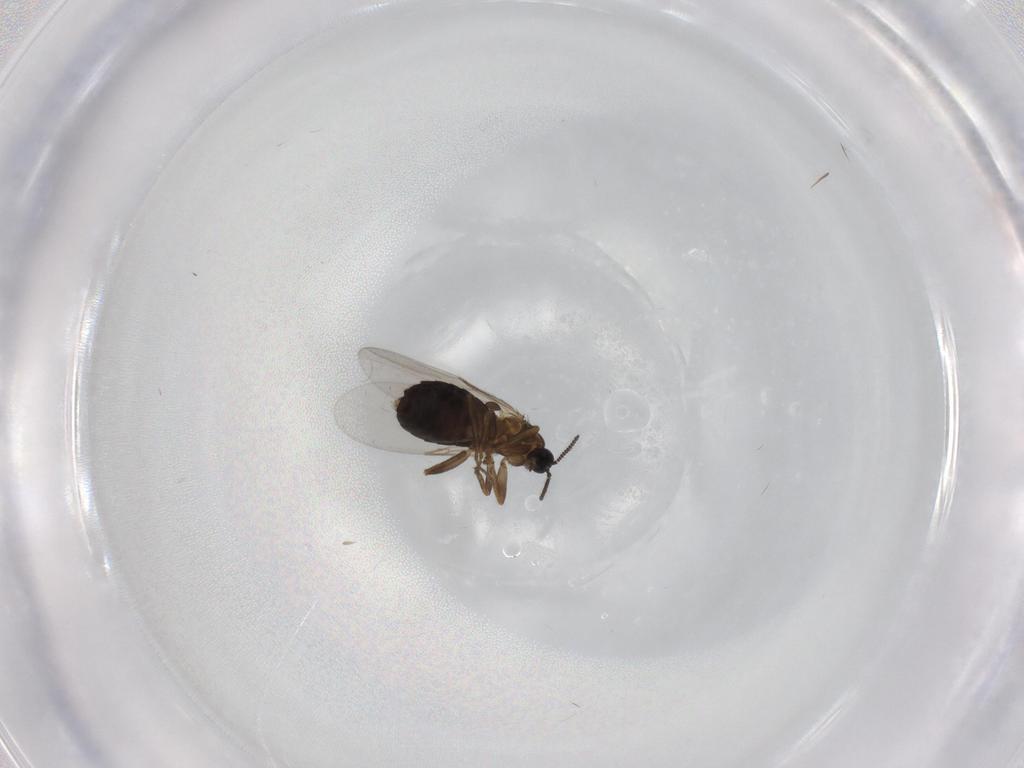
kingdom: Animalia
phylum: Arthropoda
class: Insecta
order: Diptera
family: Scatopsidae
